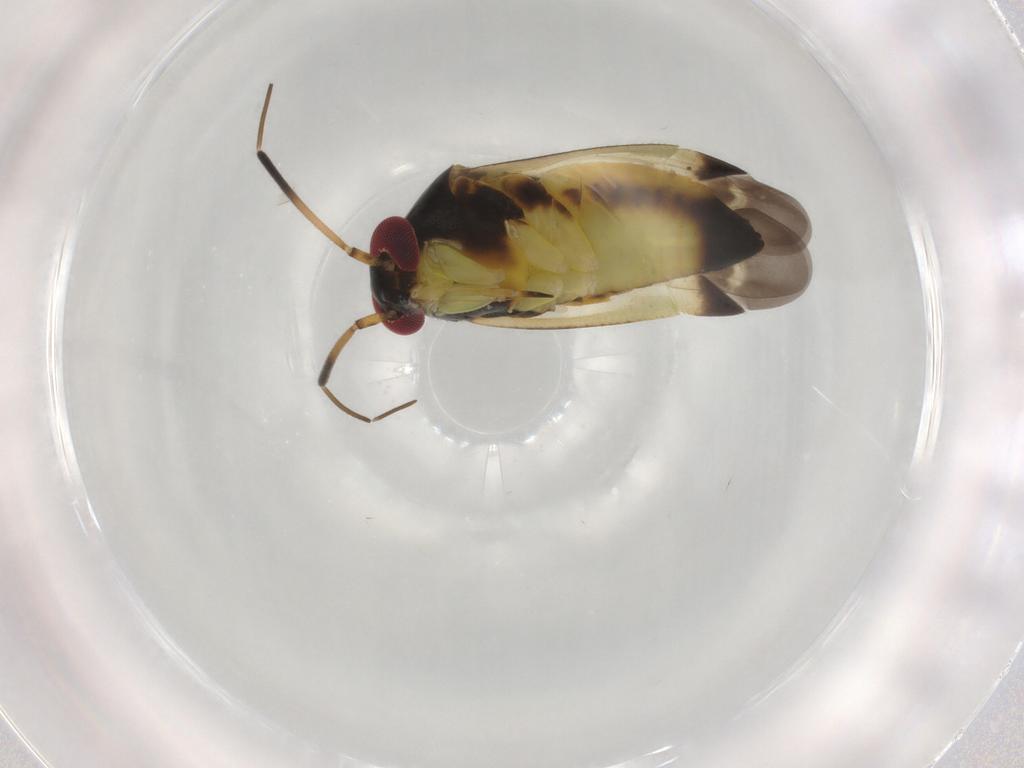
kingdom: Animalia
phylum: Arthropoda
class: Insecta
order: Hemiptera
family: Miridae
